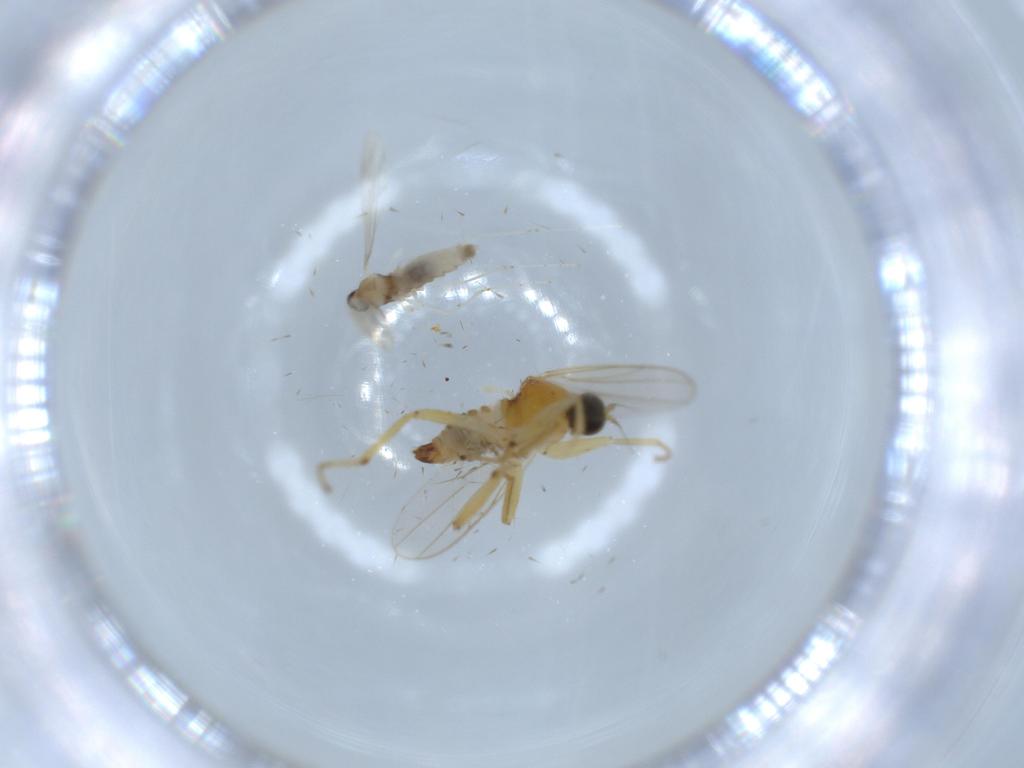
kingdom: Animalia
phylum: Arthropoda
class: Insecta
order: Diptera
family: Hybotidae
